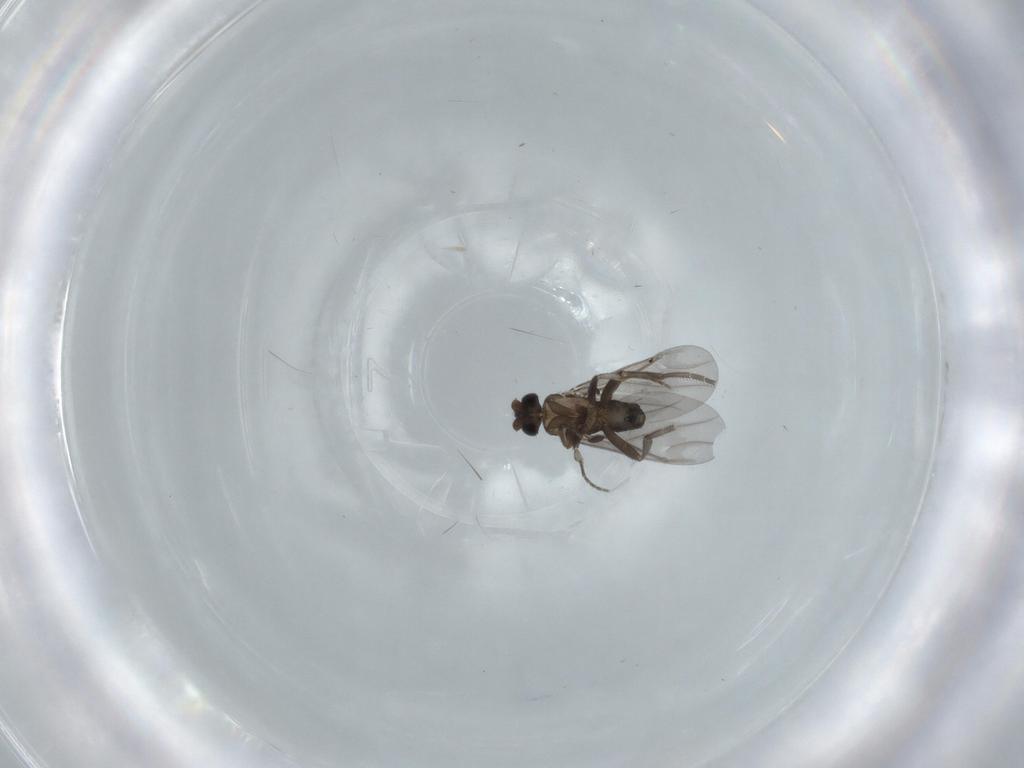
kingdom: Animalia
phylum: Arthropoda
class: Insecta
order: Diptera
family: Phoridae
